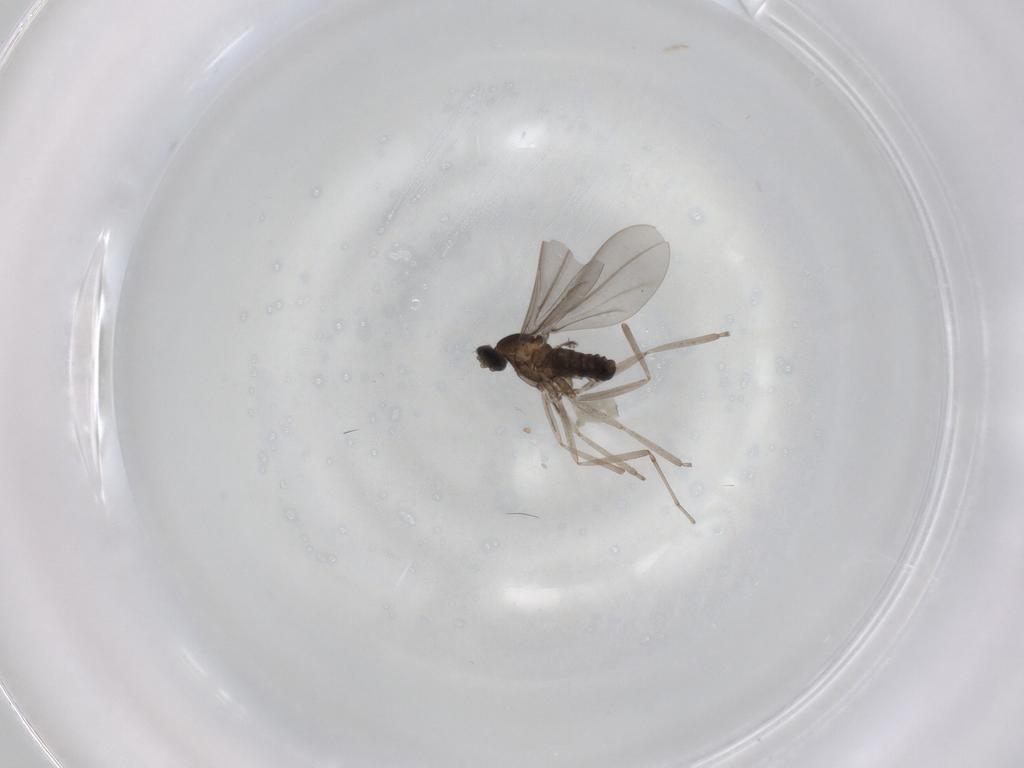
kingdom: Animalia
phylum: Arthropoda
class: Insecta
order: Diptera
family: Cecidomyiidae
